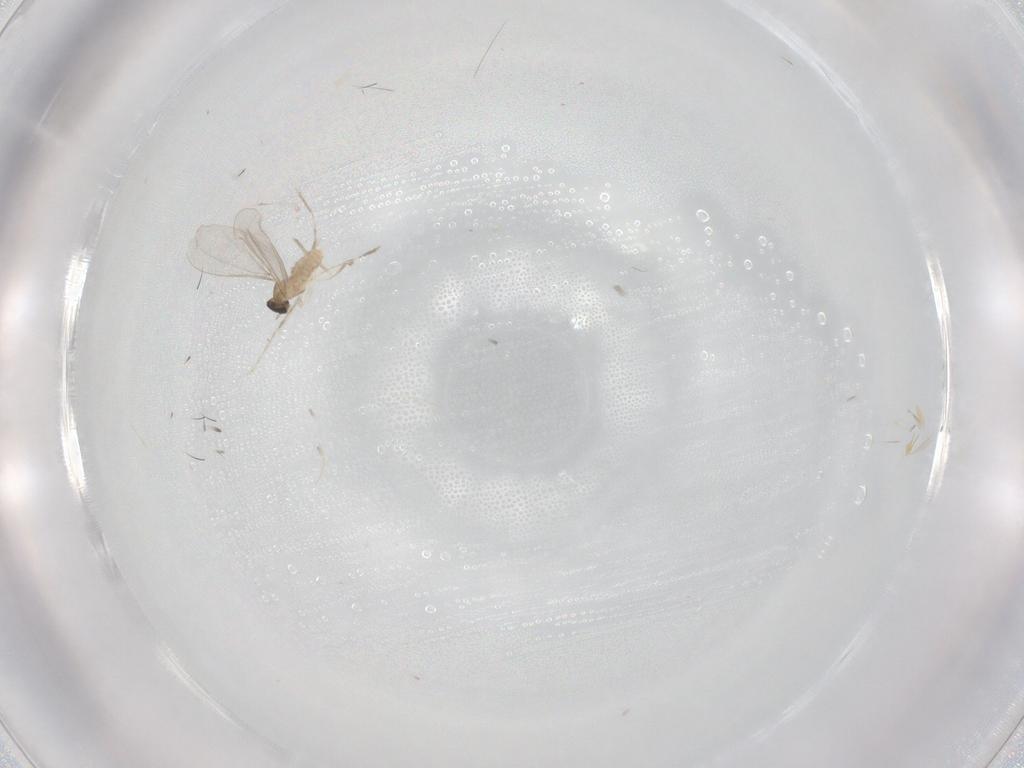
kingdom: Animalia
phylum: Arthropoda
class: Insecta
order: Diptera
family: Cecidomyiidae
